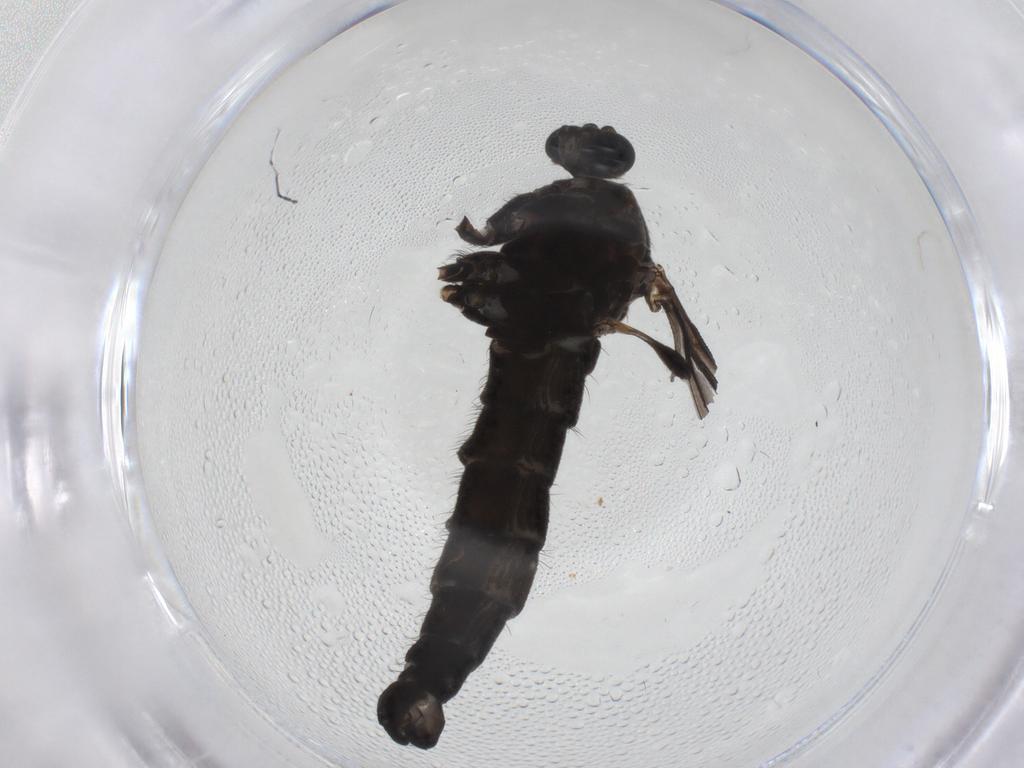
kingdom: Animalia
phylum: Arthropoda
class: Insecta
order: Diptera
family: Sciaridae
